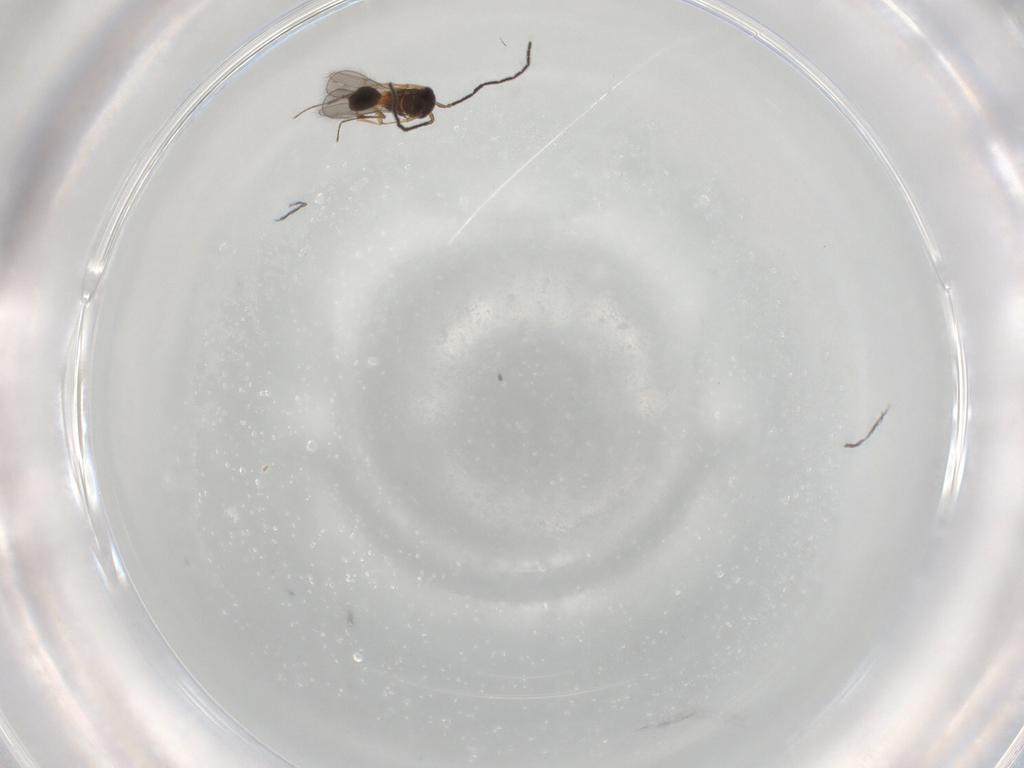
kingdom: Animalia
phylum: Arthropoda
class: Insecta
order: Hymenoptera
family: Scelionidae
